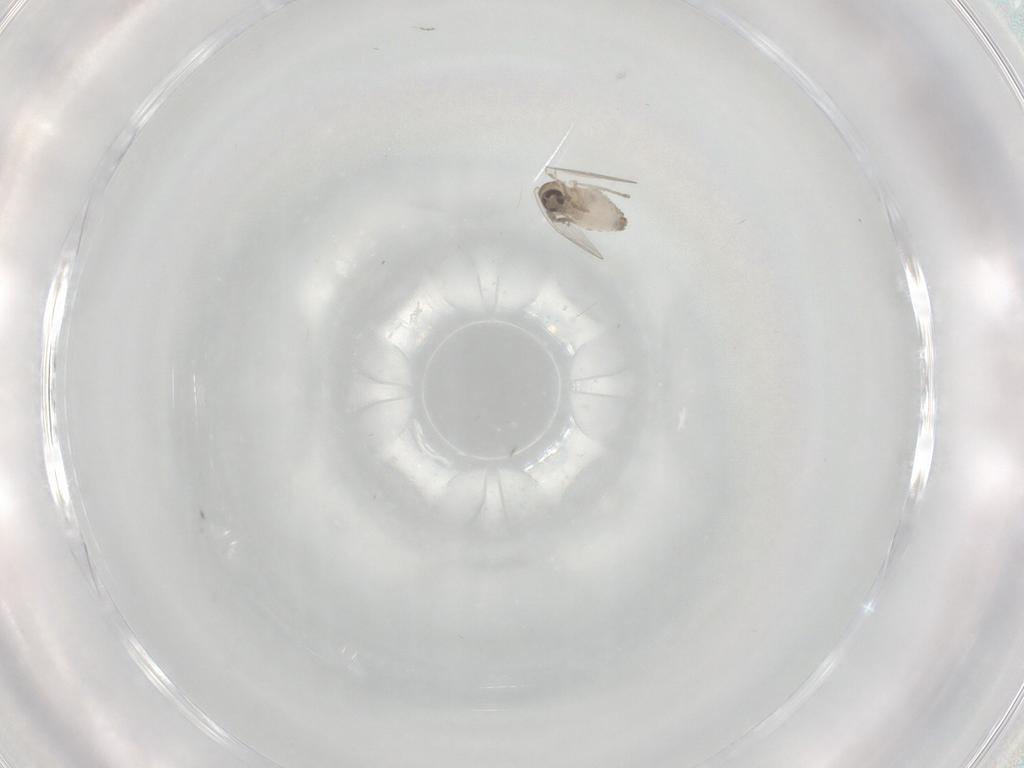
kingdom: Animalia
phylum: Arthropoda
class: Insecta
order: Diptera
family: Psychodidae
